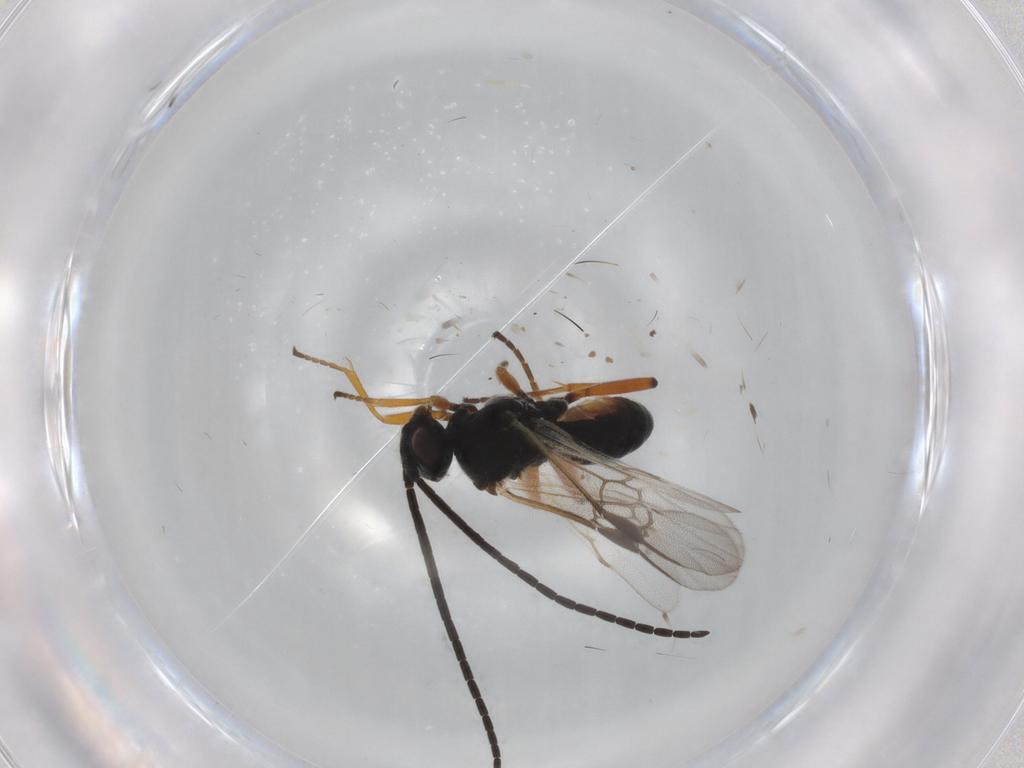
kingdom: Animalia
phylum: Arthropoda
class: Insecta
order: Hymenoptera
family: Braconidae
